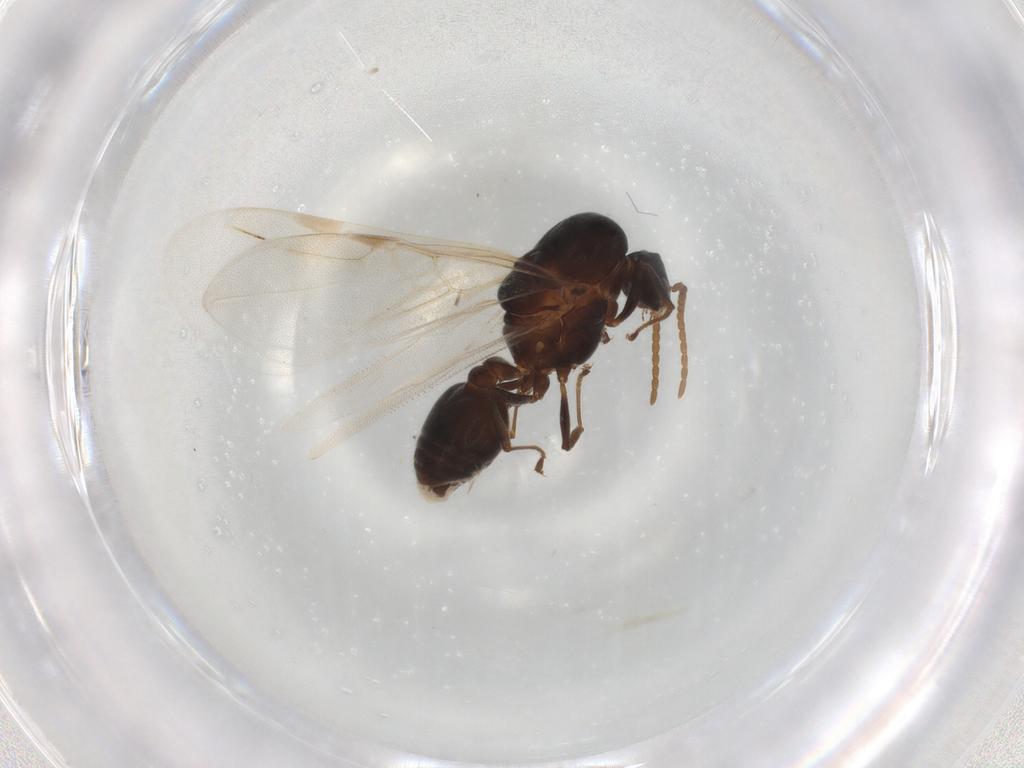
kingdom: Animalia
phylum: Arthropoda
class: Insecta
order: Hymenoptera
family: Formicidae
